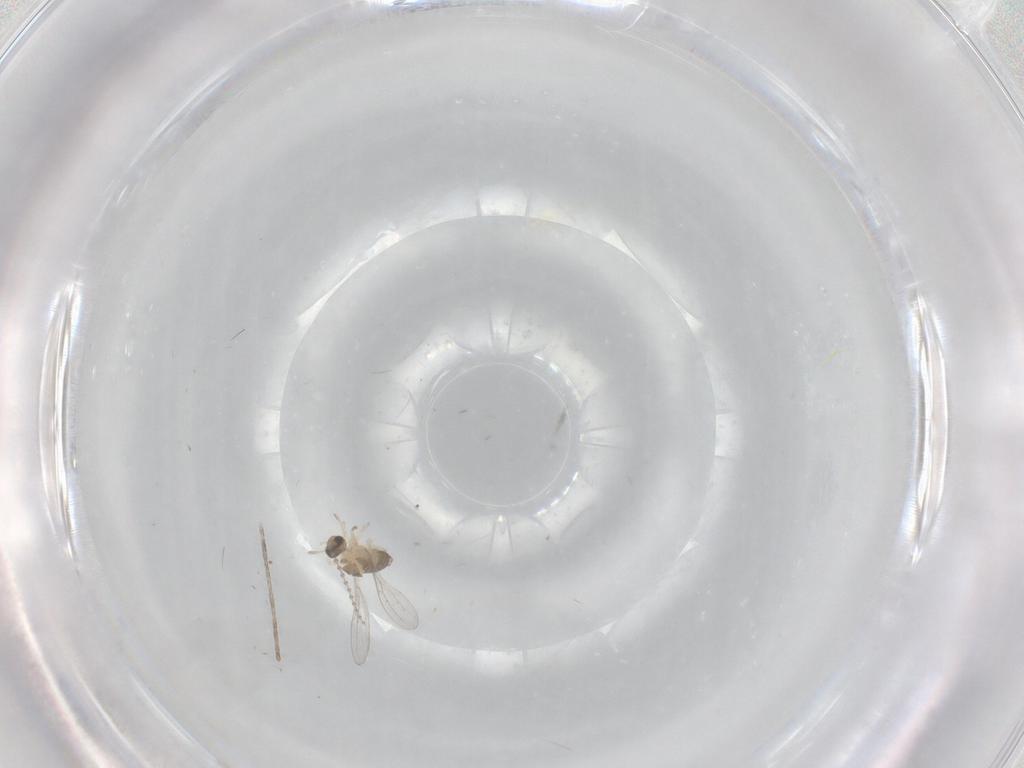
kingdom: Animalia
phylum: Arthropoda
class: Insecta
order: Diptera
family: Cecidomyiidae
